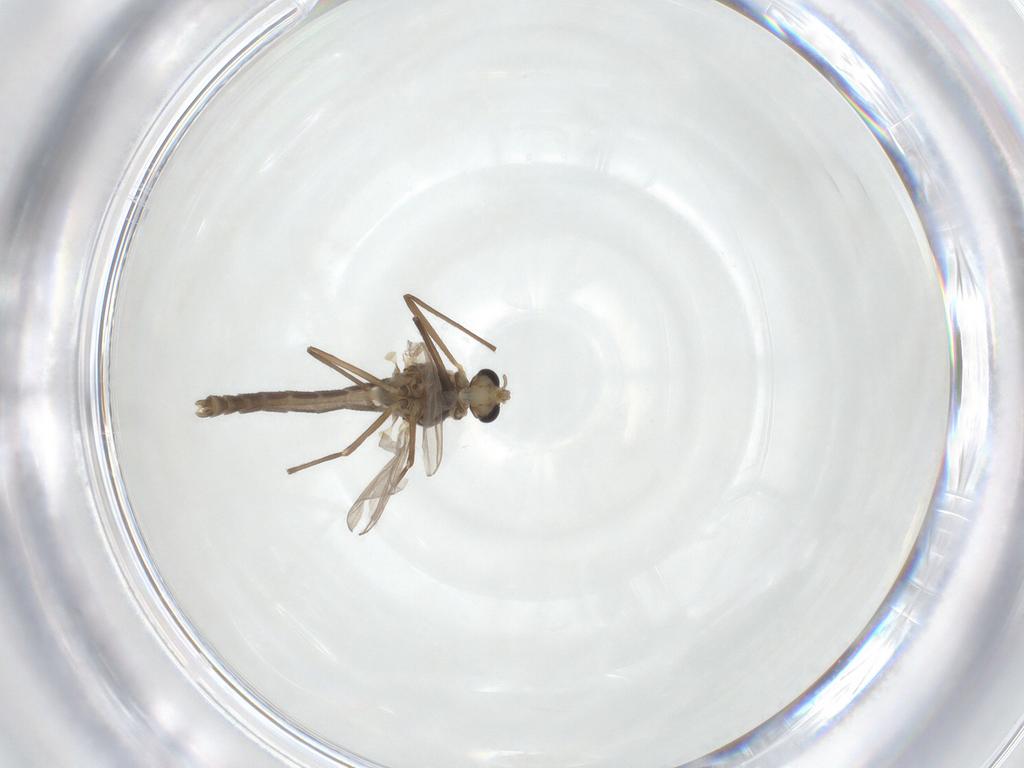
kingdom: Animalia
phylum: Arthropoda
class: Insecta
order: Diptera
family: Chironomidae
